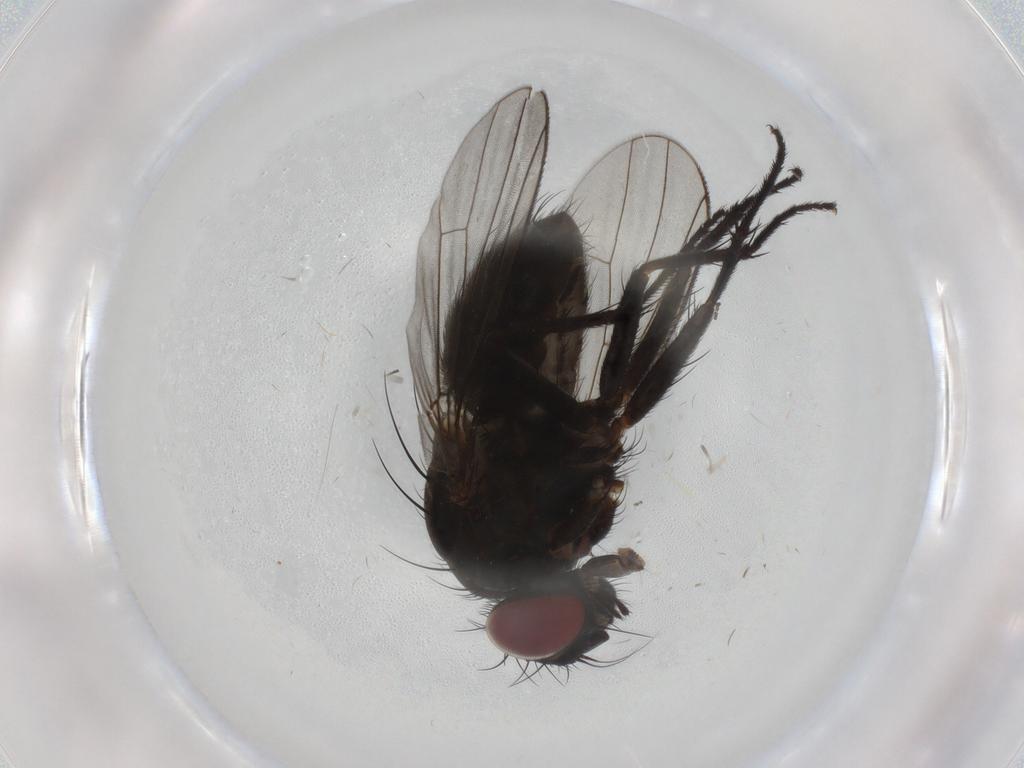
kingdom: Animalia
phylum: Arthropoda
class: Insecta
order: Diptera
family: Muscidae
